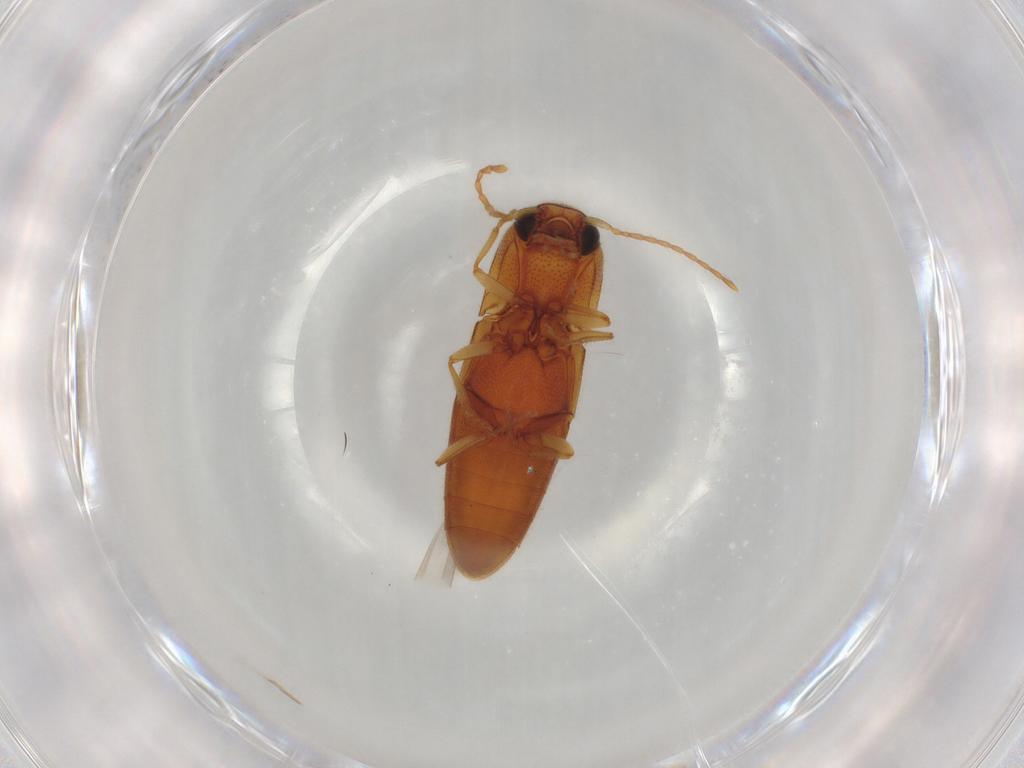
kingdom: Animalia
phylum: Arthropoda
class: Insecta
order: Coleoptera
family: Elateridae
